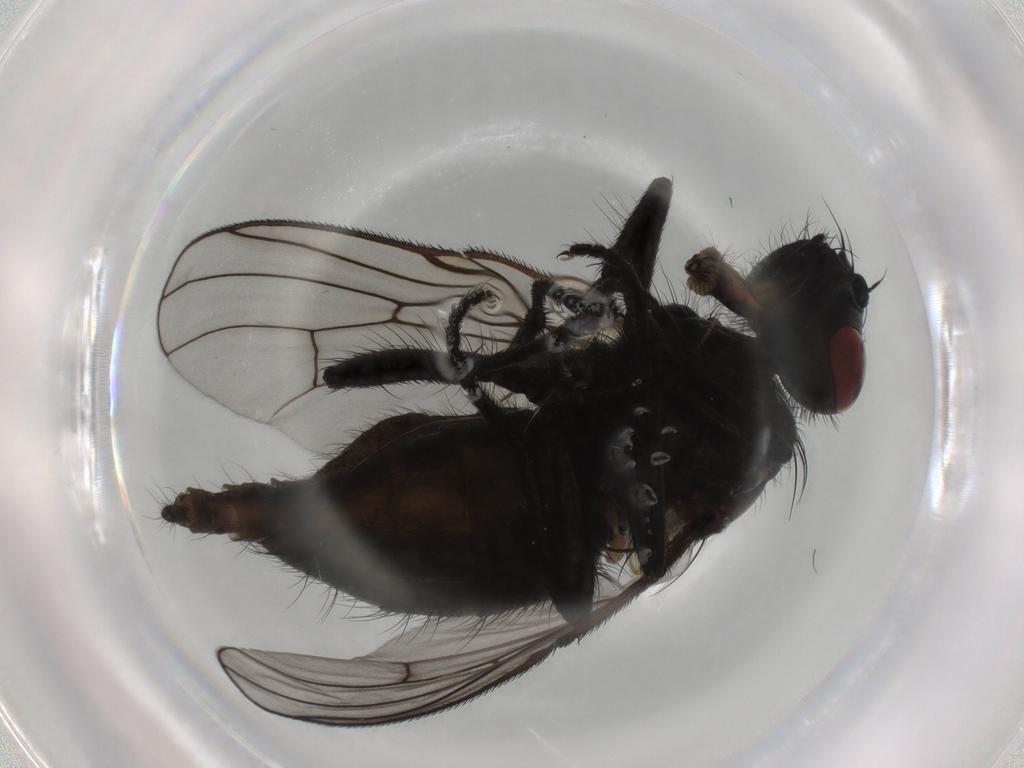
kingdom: Animalia
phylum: Arthropoda
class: Insecta
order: Diptera
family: Muscidae
